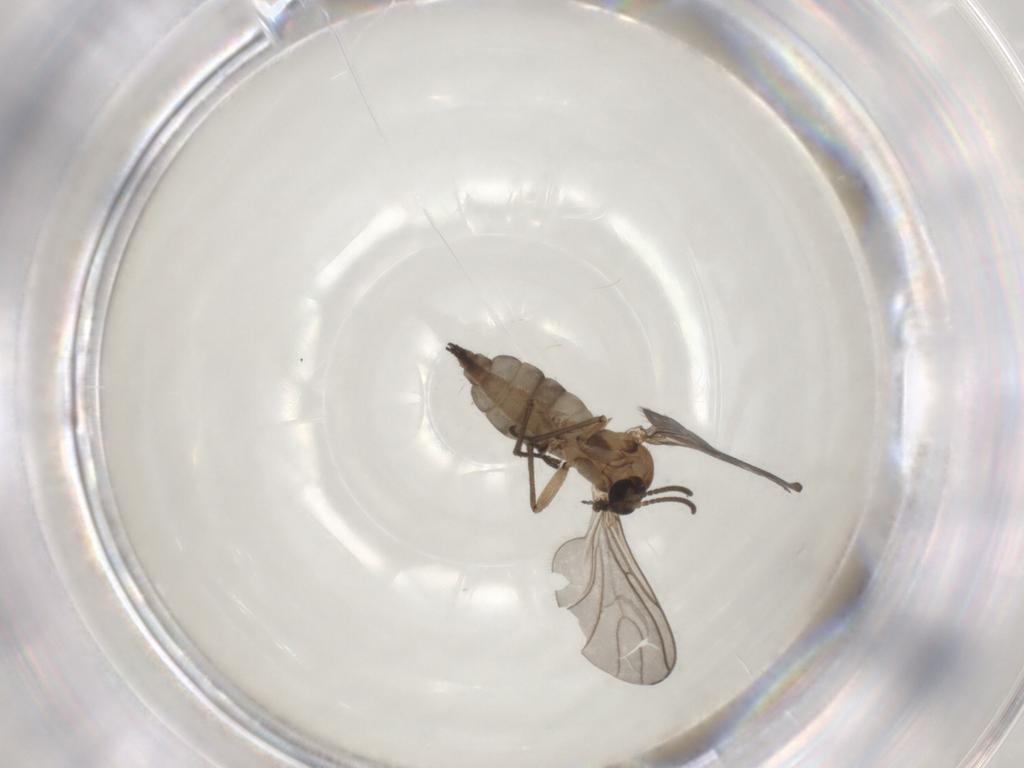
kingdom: Animalia
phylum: Arthropoda
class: Insecta
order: Diptera
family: Sciaridae
